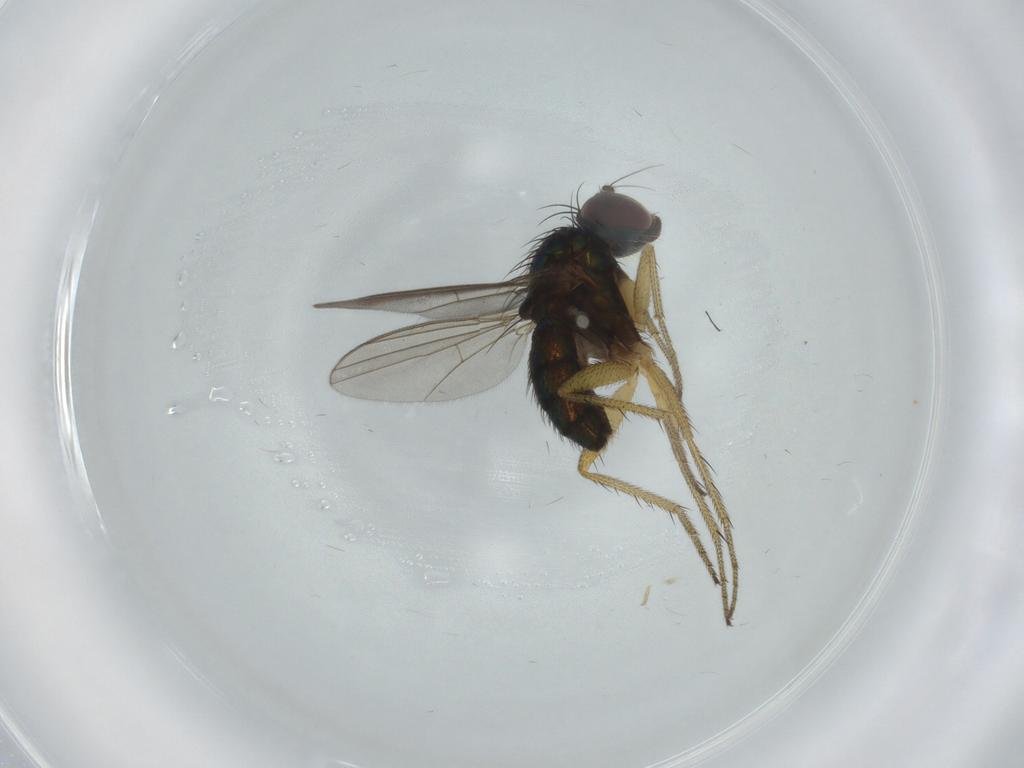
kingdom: Animalia
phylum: Arthropoda
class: Insecta
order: Diptera
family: Dolichopodidae
